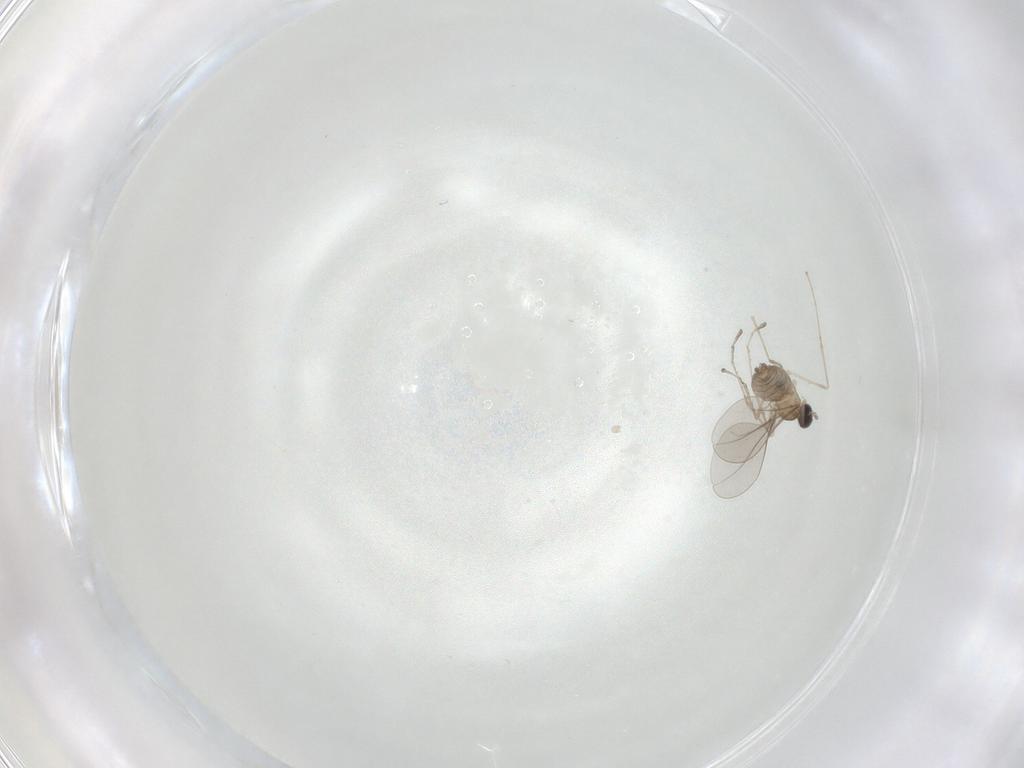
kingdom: Animalia
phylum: Arthropoda
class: Insecta
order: Diptera
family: Cecidomyiidae
